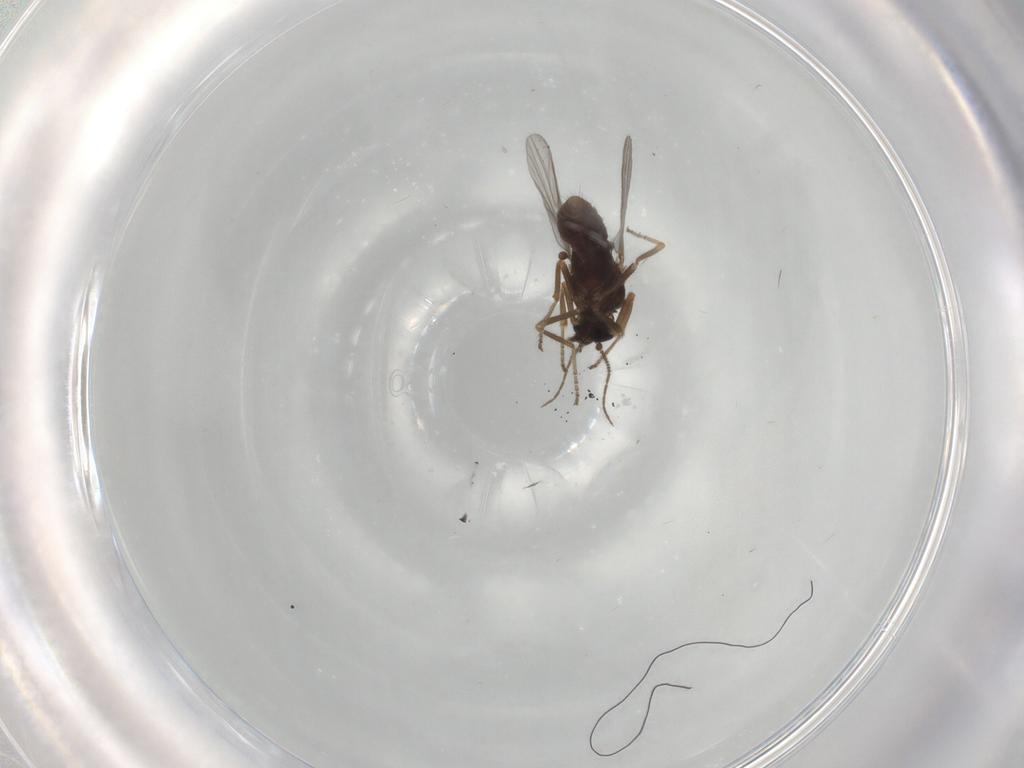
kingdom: Animalia
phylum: Arthropoda
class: Insecta
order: Diptera
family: Ceratopogonidae
